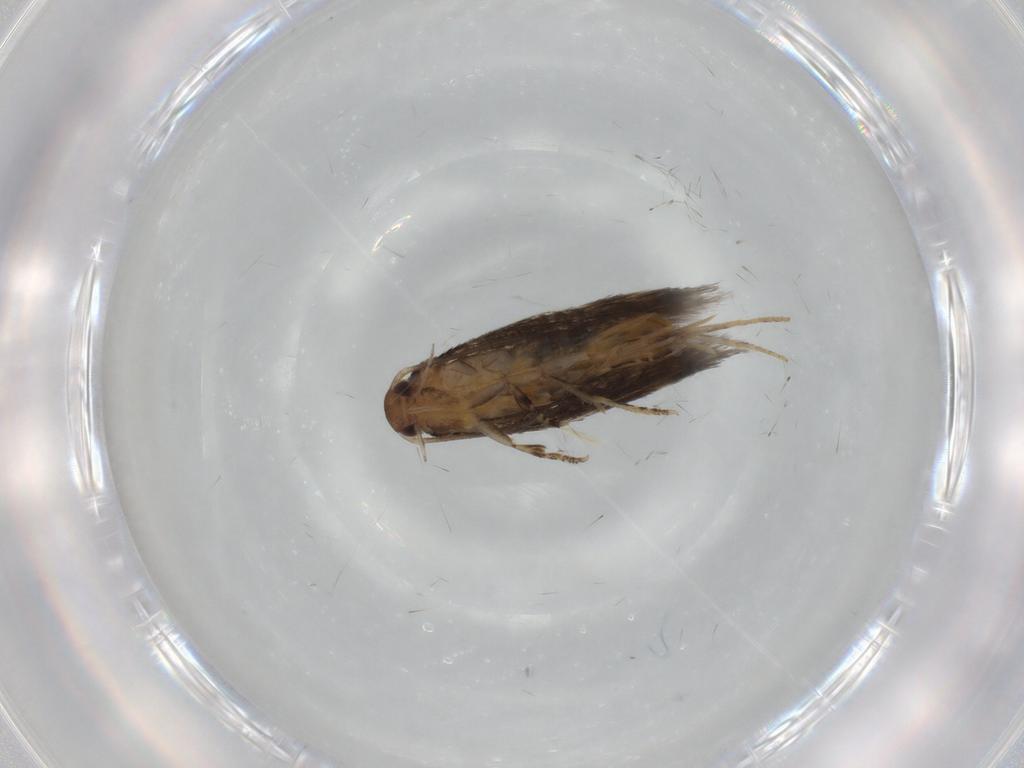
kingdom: Animalia
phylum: Arthropoda
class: Insecta
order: Lepidoptera
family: Elachistidae
